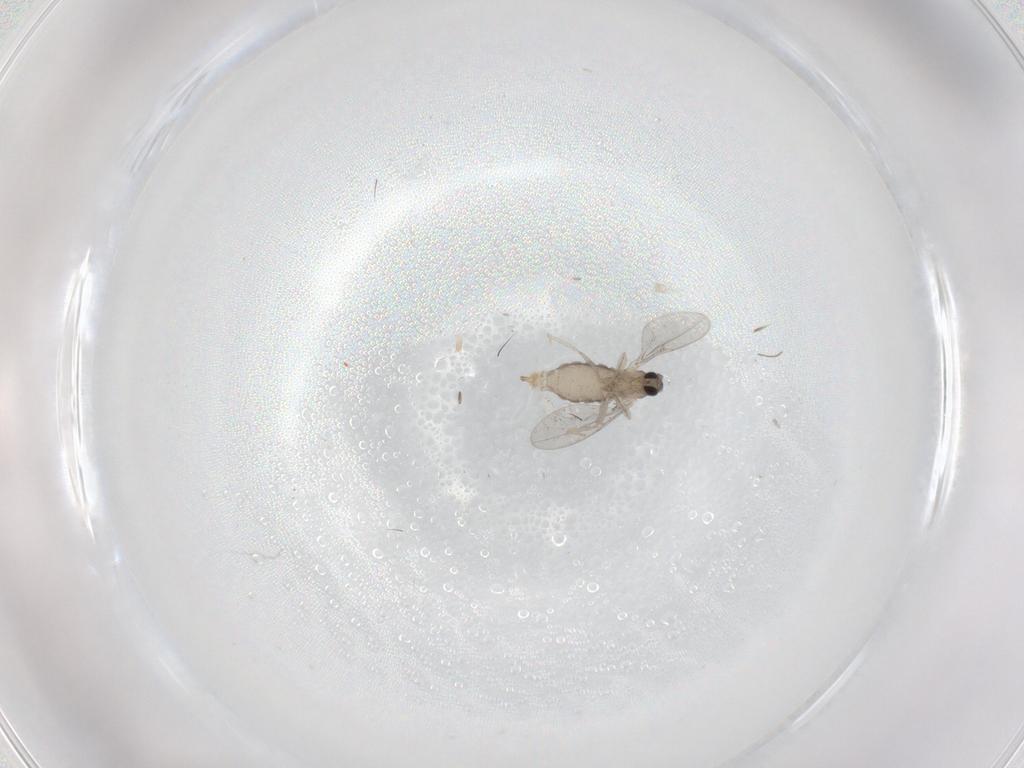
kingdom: Animalia
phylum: Arthropoda
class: Insecta
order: Diptera
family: Cecidomyiidae
